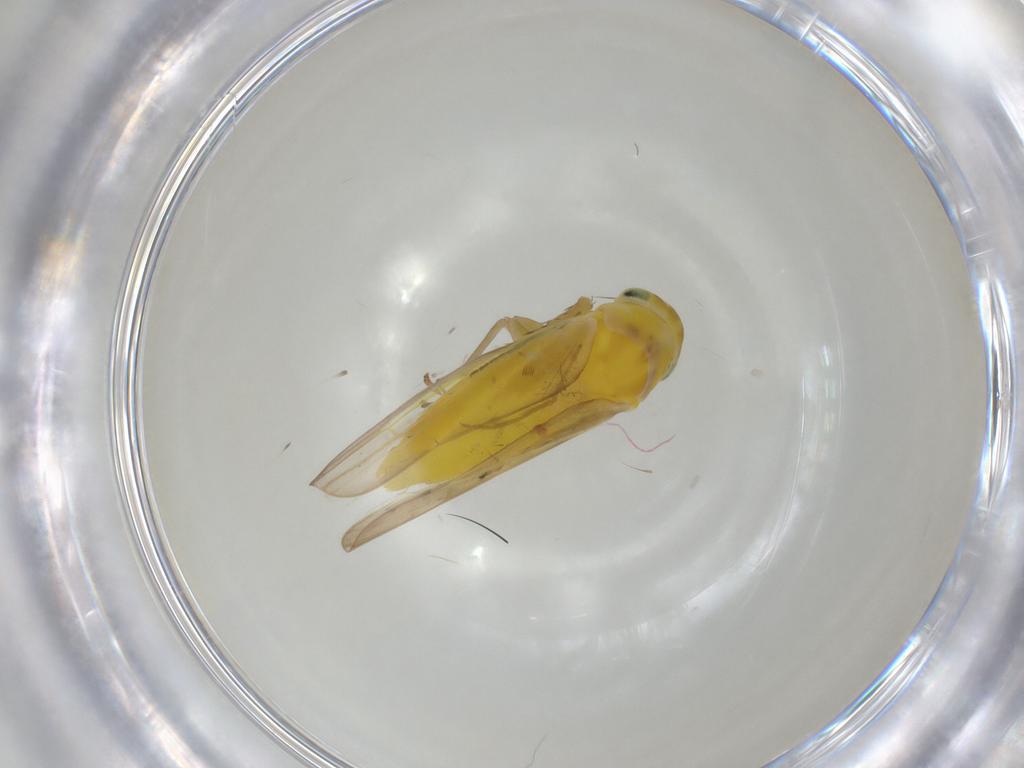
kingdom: Animalia
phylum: Arthropoda
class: Insecta
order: Hemiptera
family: Cicadellidae
